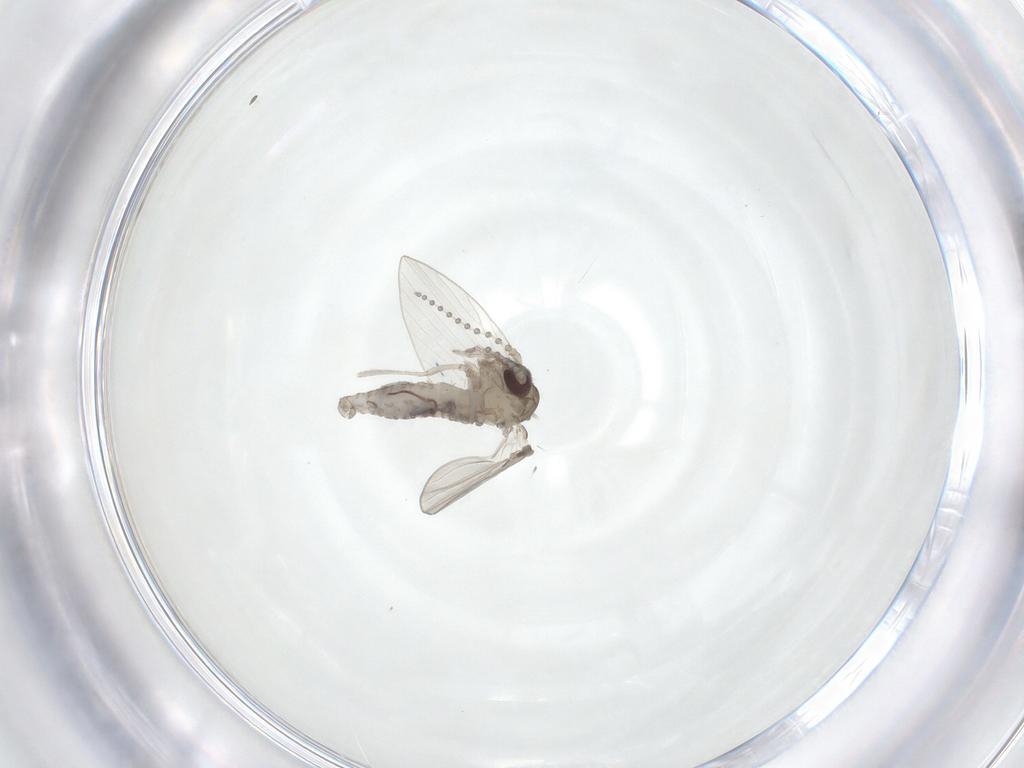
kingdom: Animalia
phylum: Arthropoda
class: Insecta
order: Diptera
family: Psychodidae
